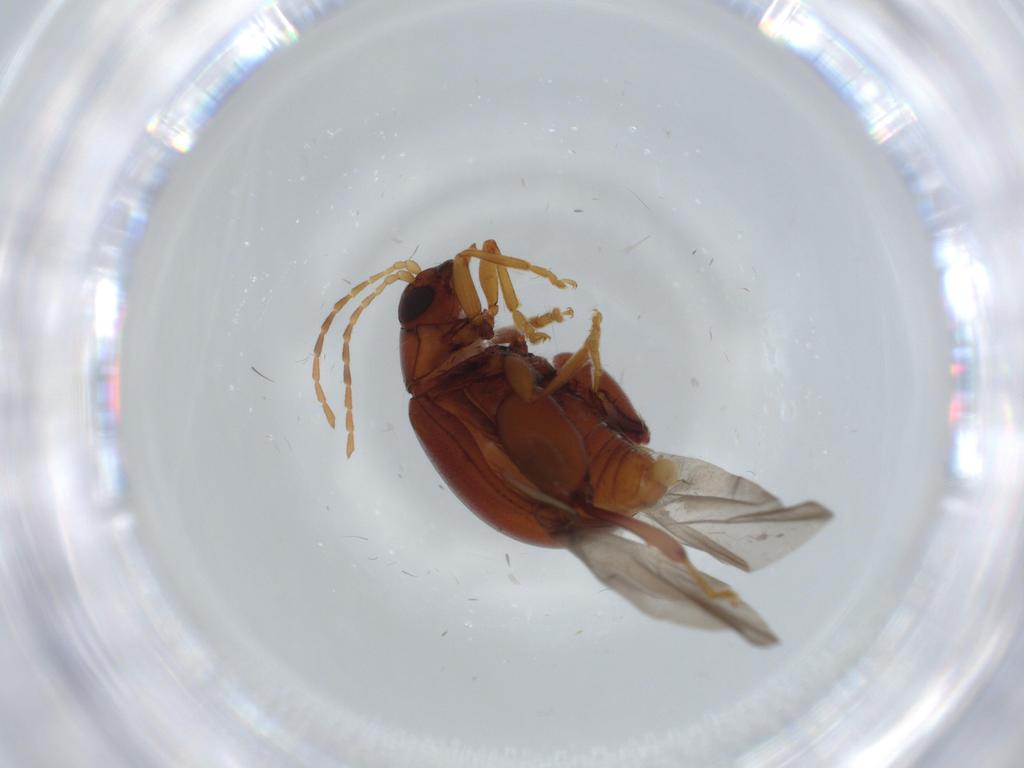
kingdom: Animalia
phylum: Arthropoda
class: Insecta
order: Coleoptera
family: Chrysomelidae
